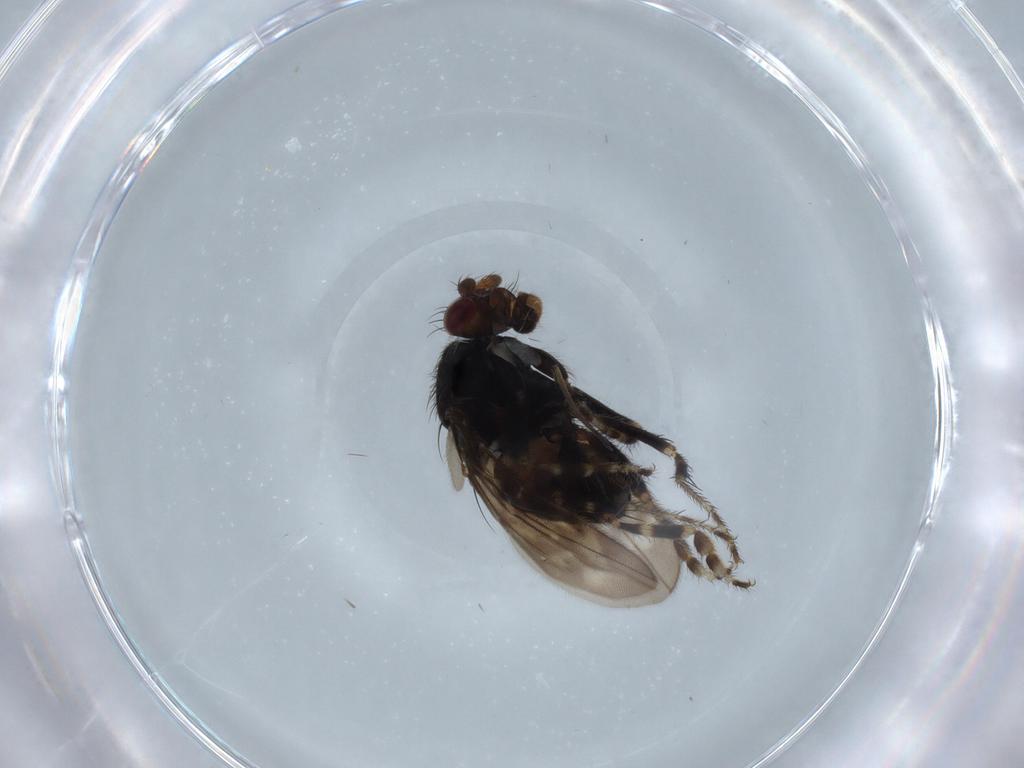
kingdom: Animalia
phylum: Arthropoda
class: Insecta
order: Diptera
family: Sphaeroceridae
